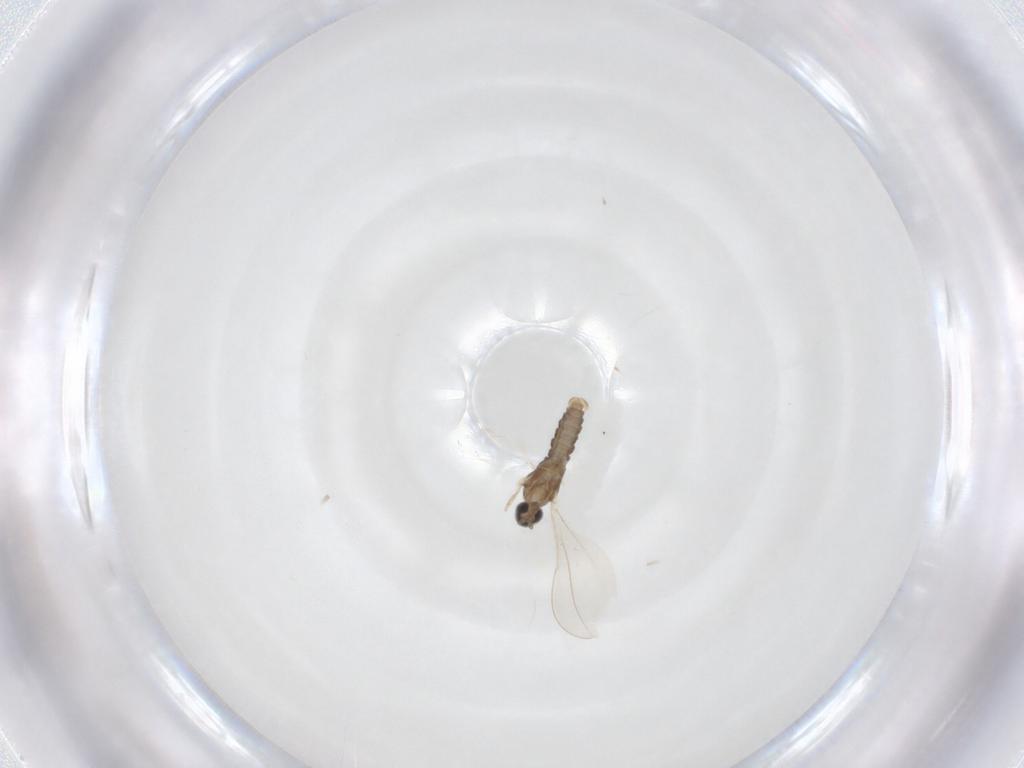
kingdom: Animalia
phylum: Arthropoda
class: Insecta
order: Diptera
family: Cecidomyiidae
